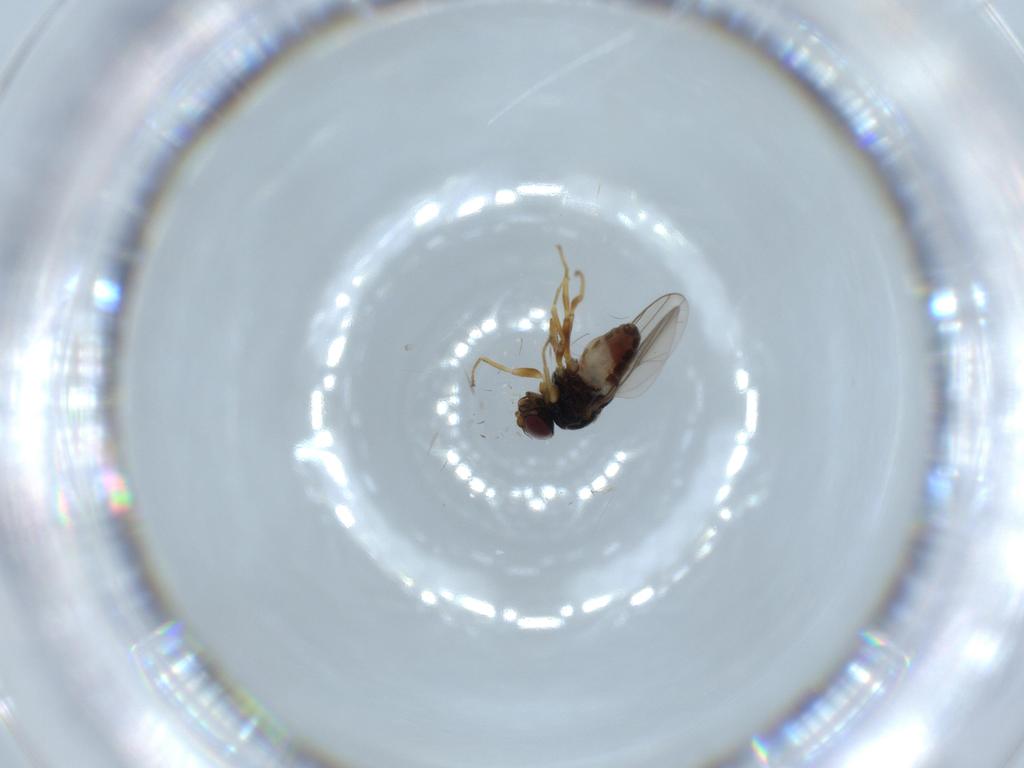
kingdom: Animalia
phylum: Arthropoda
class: Insecta
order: Diptera
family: Chloropidae
